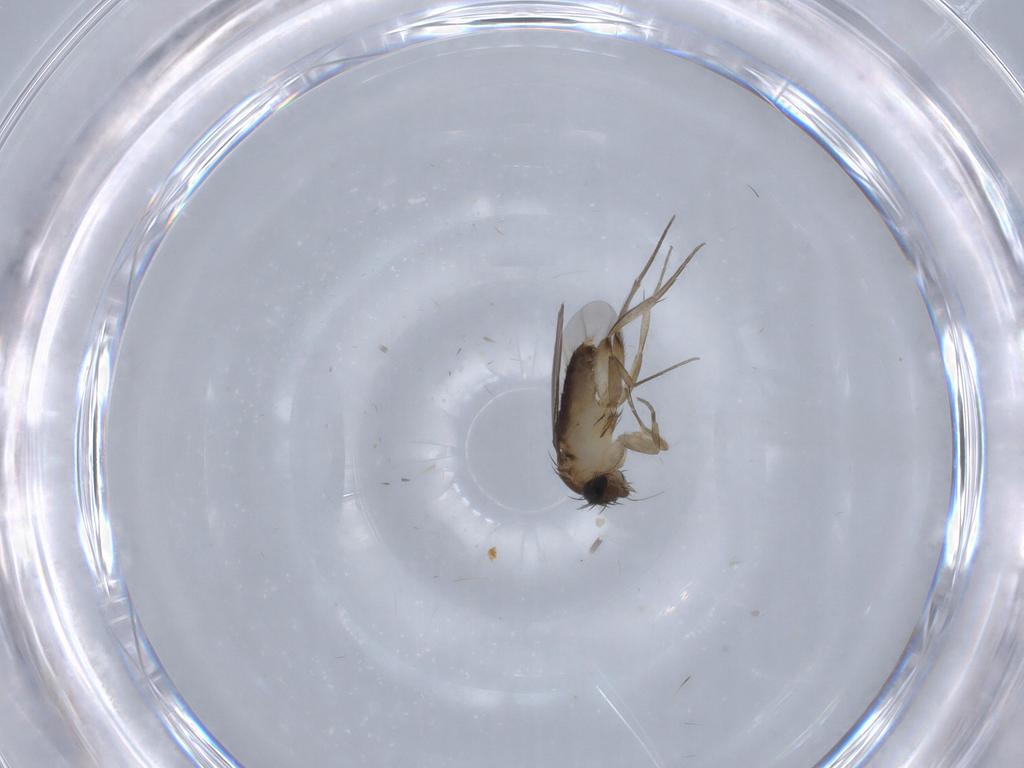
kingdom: Animalia
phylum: Arthropoda
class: Insecta
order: Diptera
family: Phoridae
